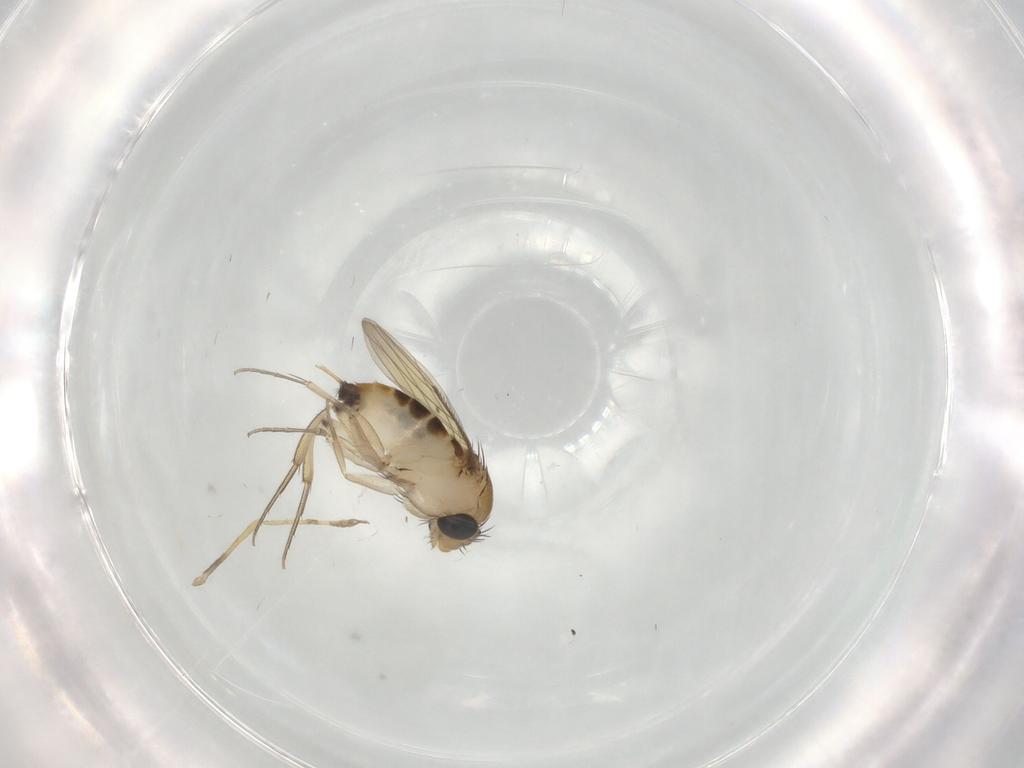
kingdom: Animalia
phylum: Arthropoda
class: Insecta
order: Diptera
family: Phoridae
